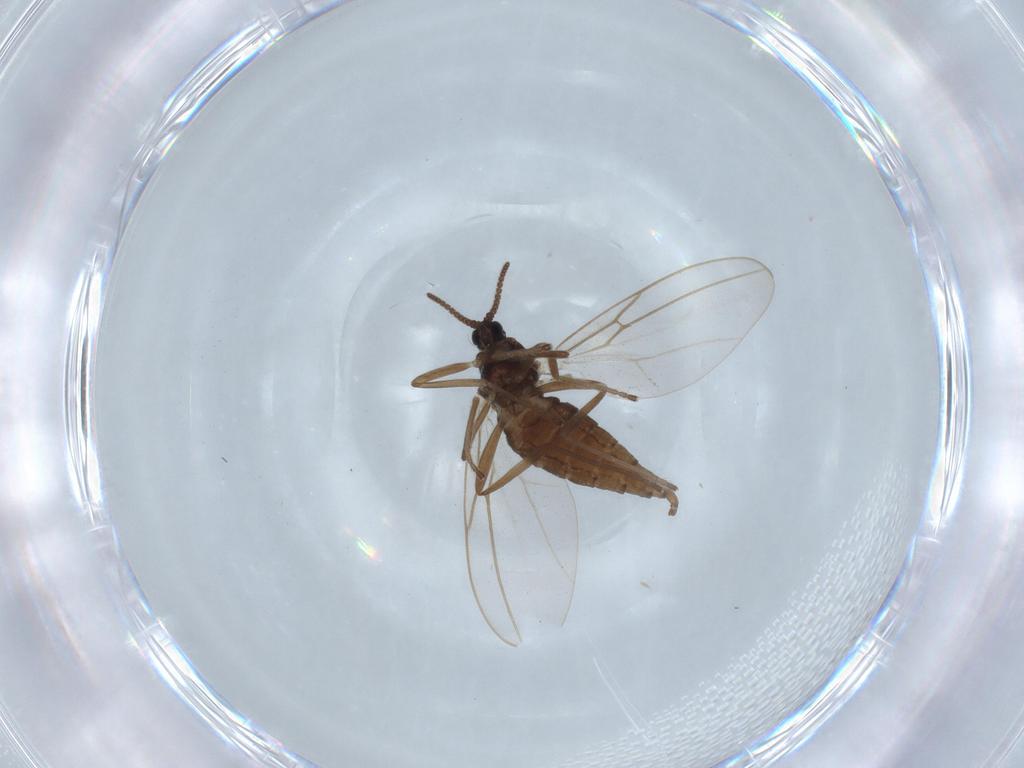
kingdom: Animalia
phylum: Arthropoda
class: Insecta
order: Diptera
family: Cecidomyiidae
